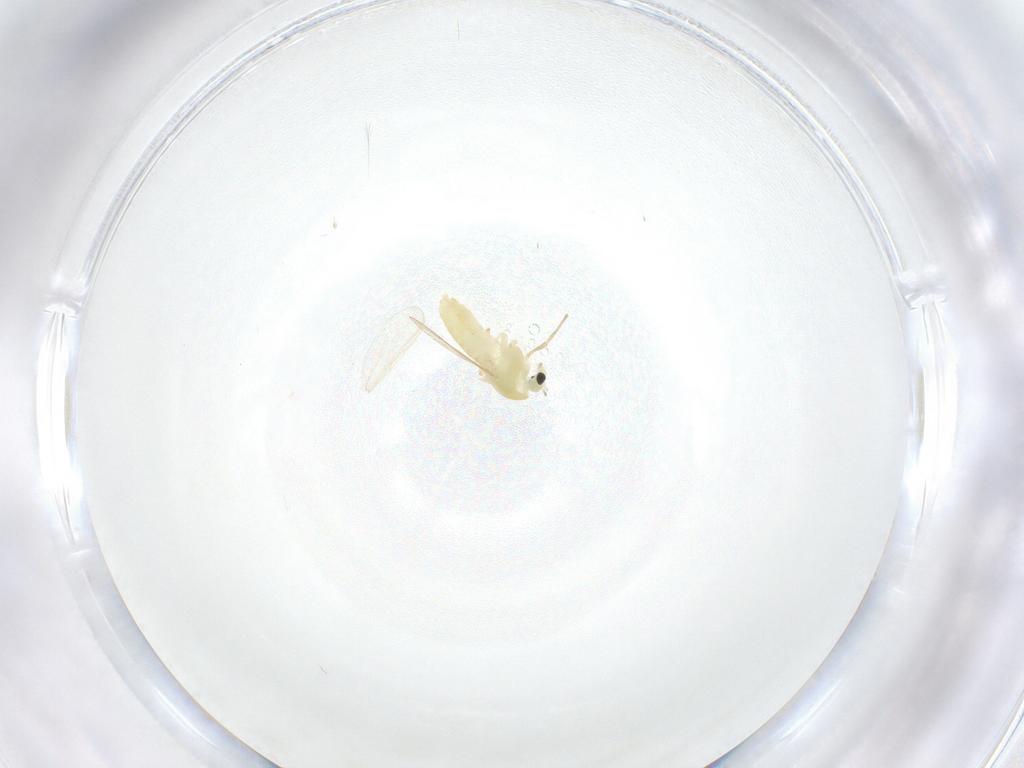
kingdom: Animalia
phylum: Arthropoda
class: Insecta
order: Diptera
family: Chironomidae
